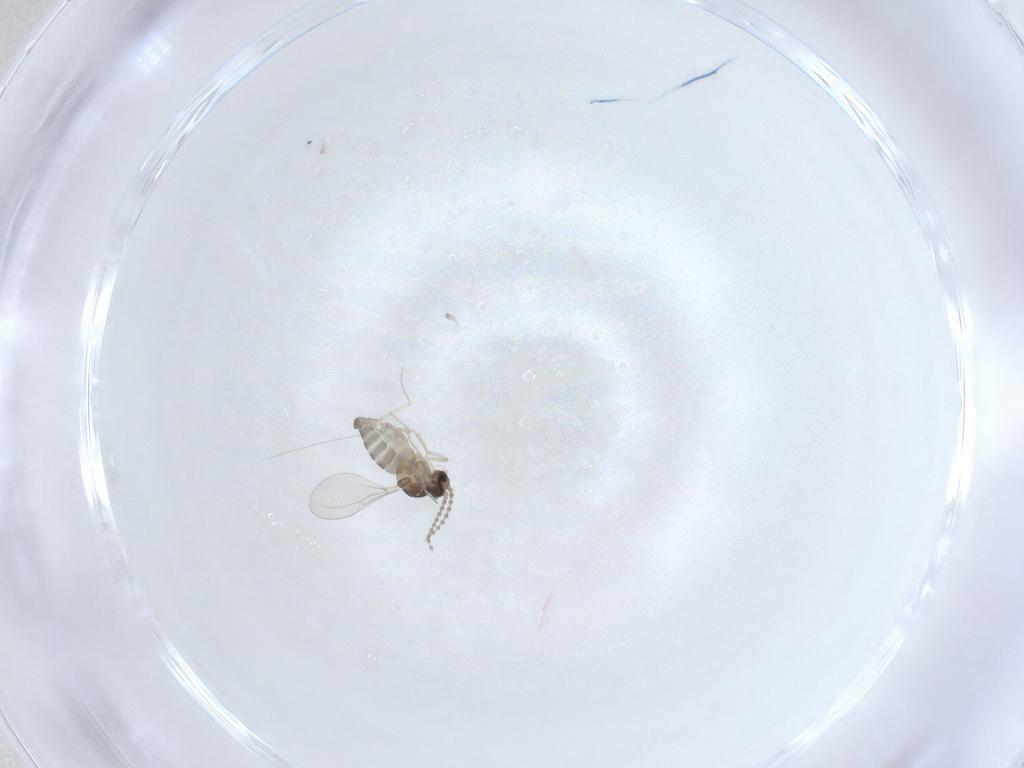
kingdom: Animalia
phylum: Arthropoda
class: Insecta
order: Diptera
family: Cecidomyiidae
